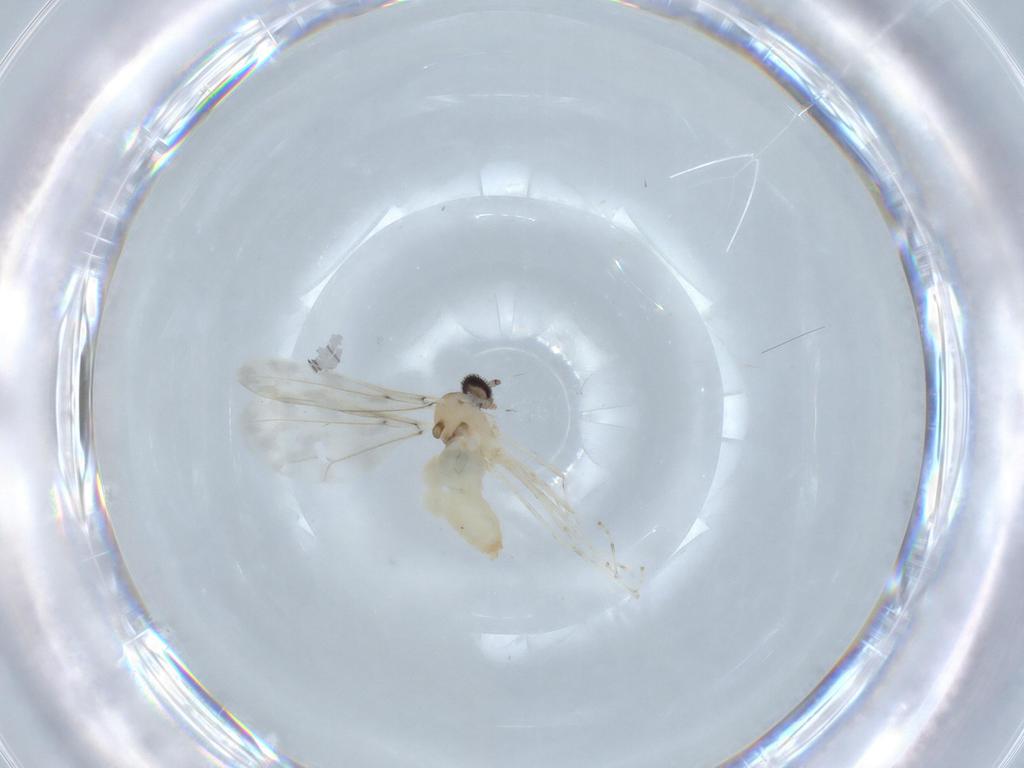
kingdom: Animalia
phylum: Arthropoda
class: Insecta
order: Diptera
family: Cecidomyiidae
